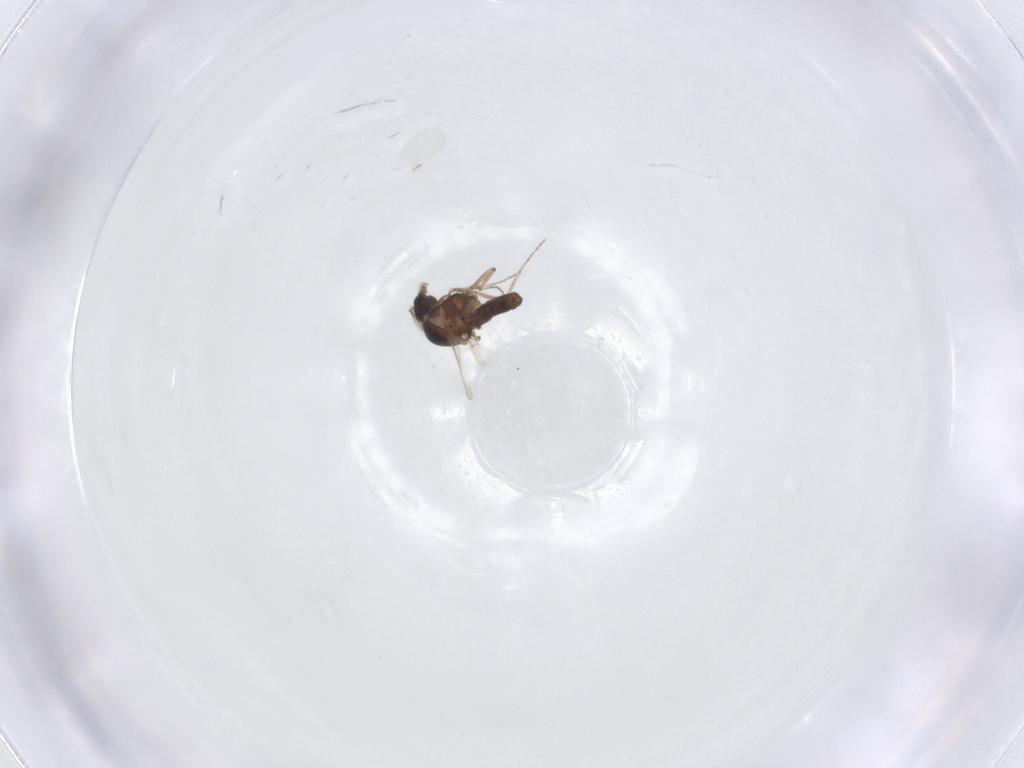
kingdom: Animalia
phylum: Arthropoda
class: Insecta
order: Diptera
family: Ceratopogonidae
